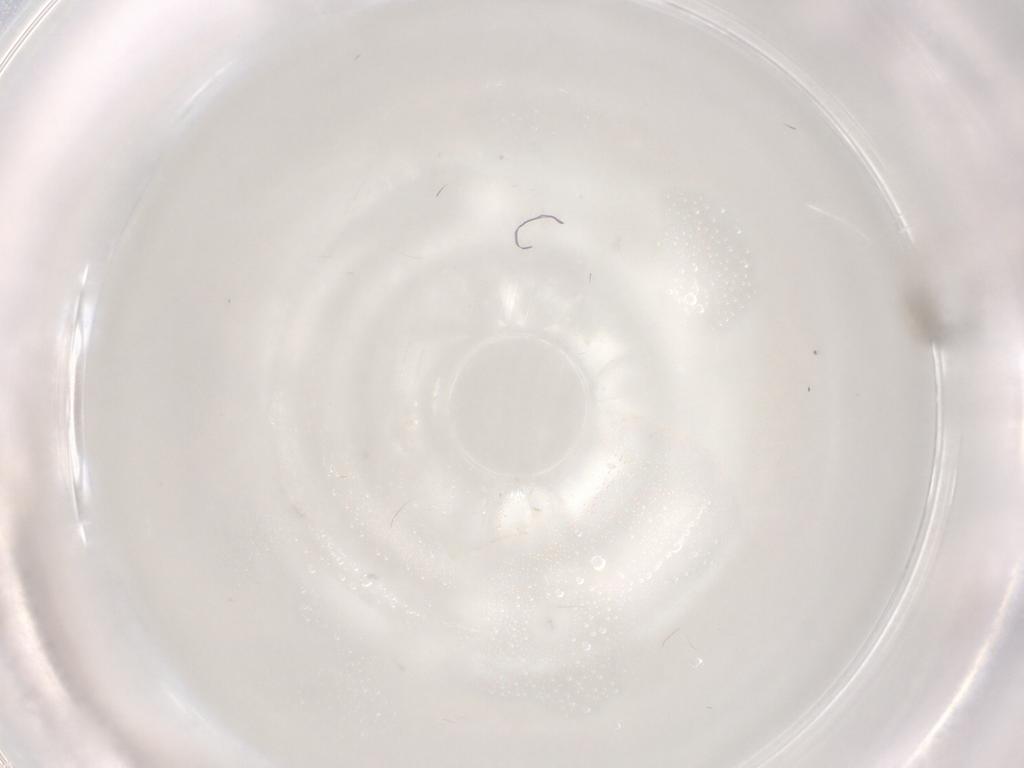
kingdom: Animalia
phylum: Arthropoda
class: Insecta
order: Diptera
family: Cecidomyiidae
